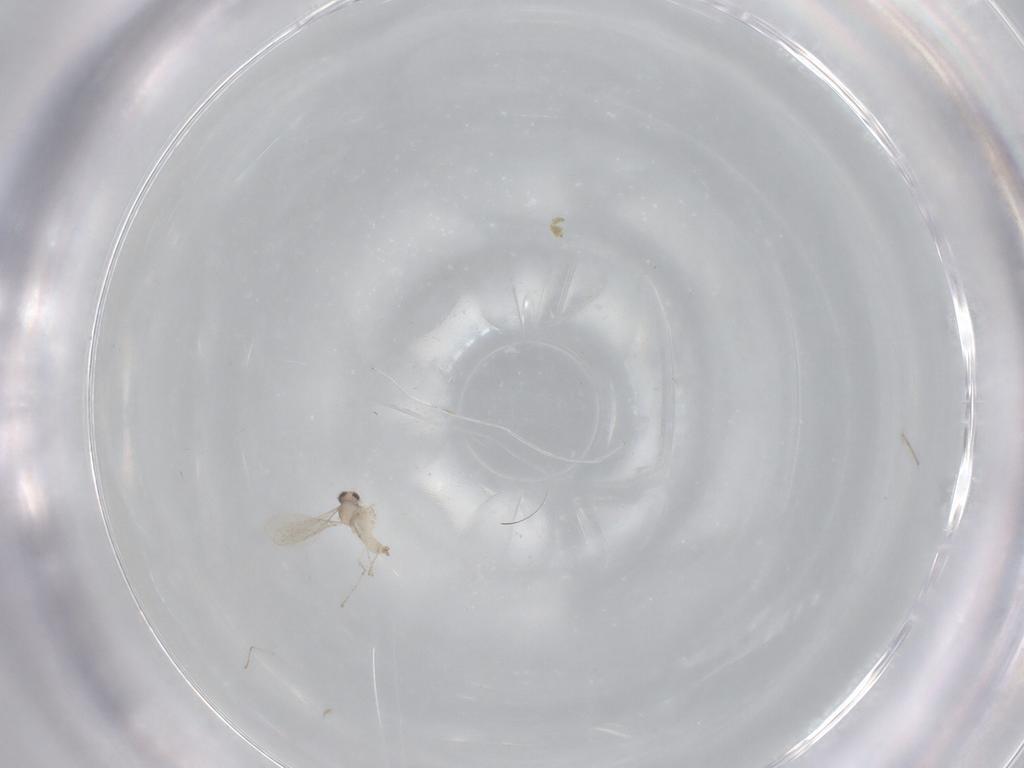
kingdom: Animalia
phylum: Arthropoda
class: Insecta
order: Diptera
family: Cecidomyiidae
